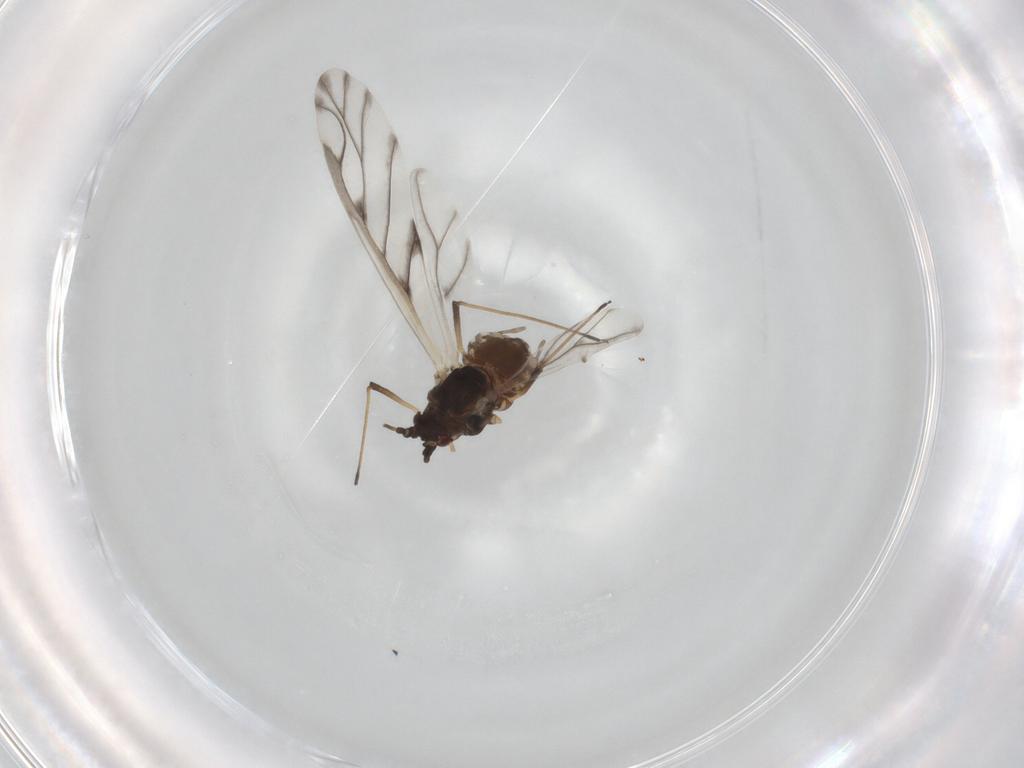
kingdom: Animalia
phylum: Arthropoda
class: Insecta
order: Hemiptera
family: Aphididae
